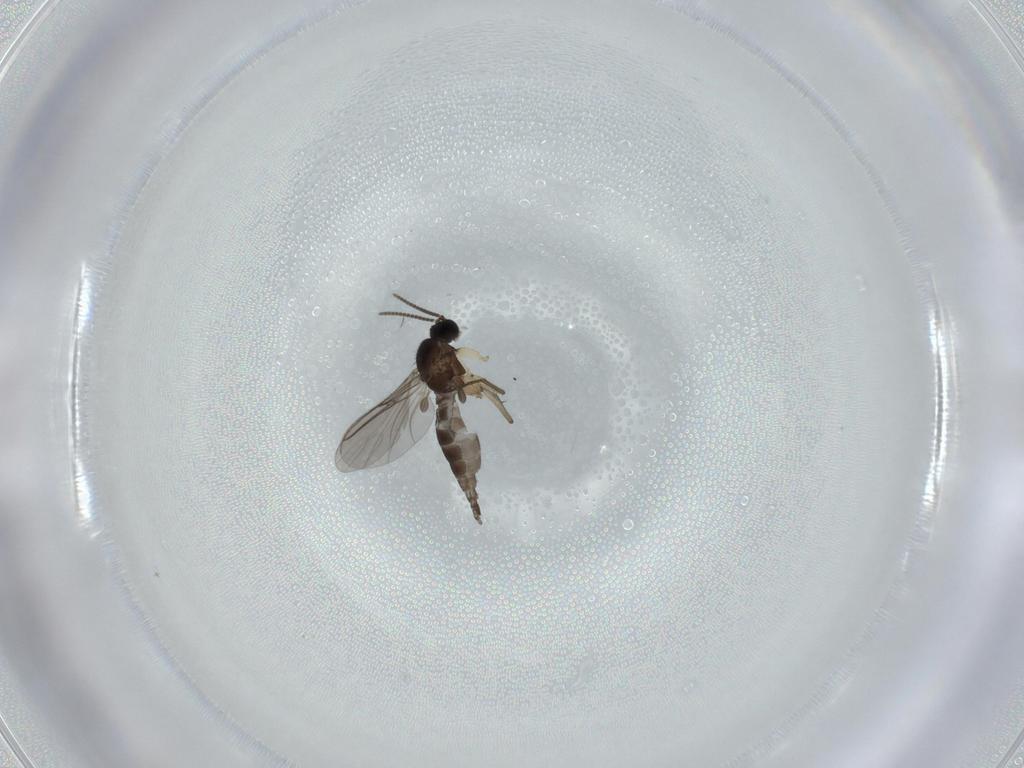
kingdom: Animalia
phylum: Arthropoda
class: Insecta
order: Diptera
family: Sciaridae
